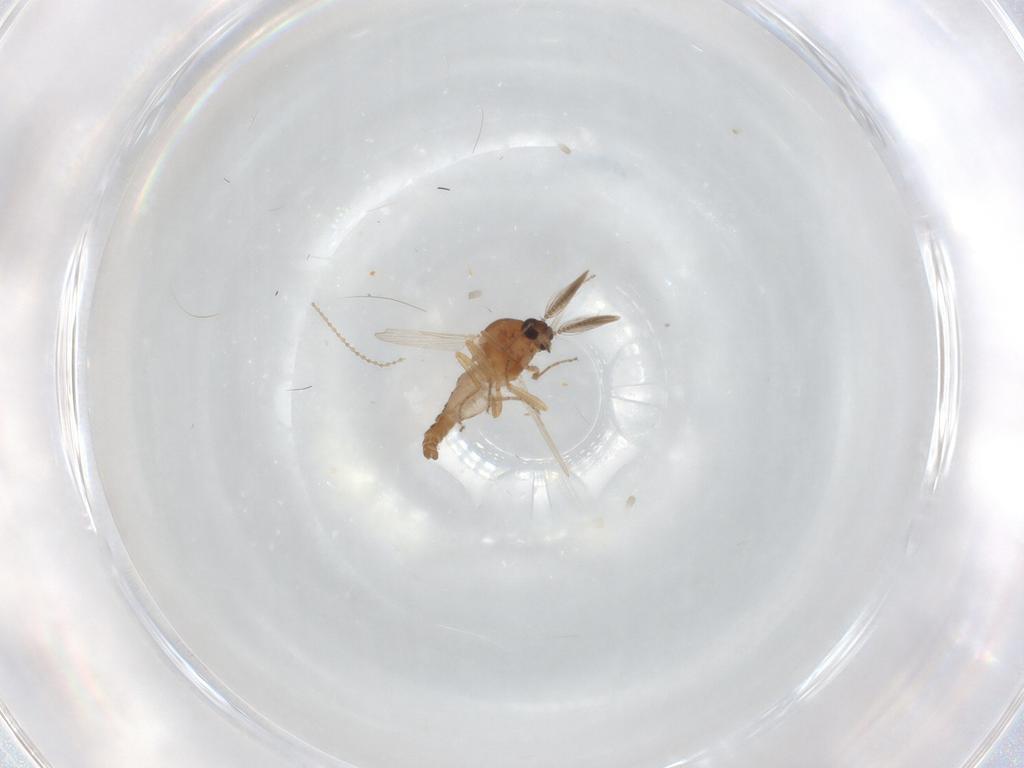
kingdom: Animalia
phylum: Arthropoda
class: Insecta
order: Diptera
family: Ceratopogonidae
